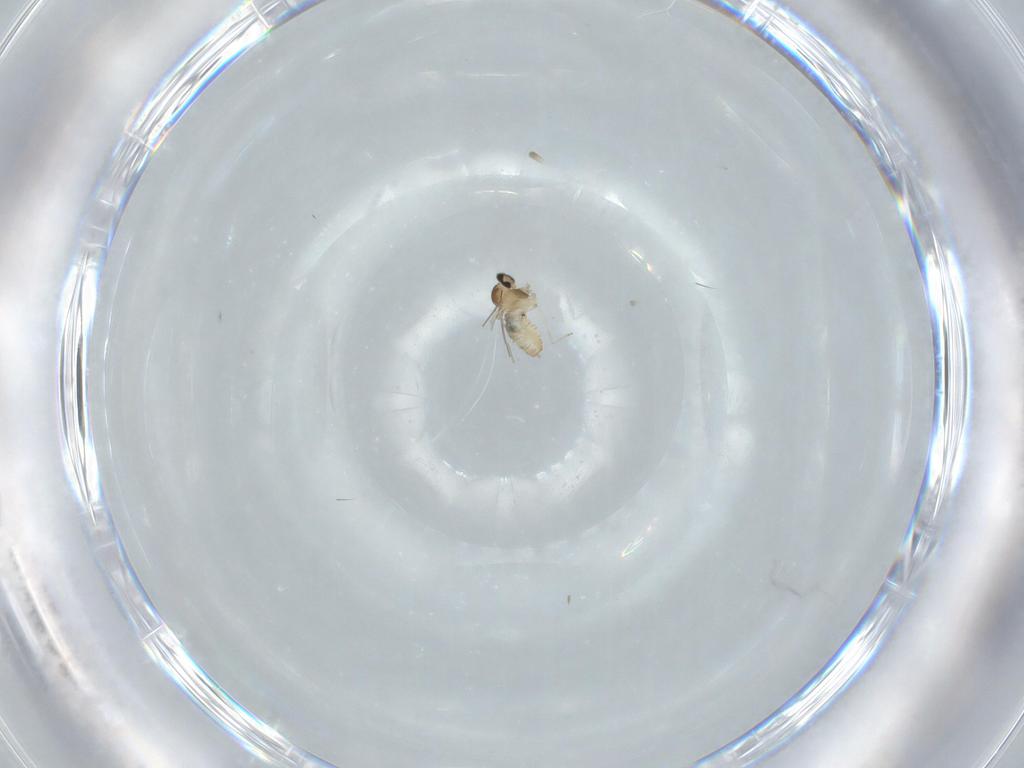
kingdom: Animalia
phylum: Arthropoda
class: Insecta
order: Diptera
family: Cecidomyiidae
